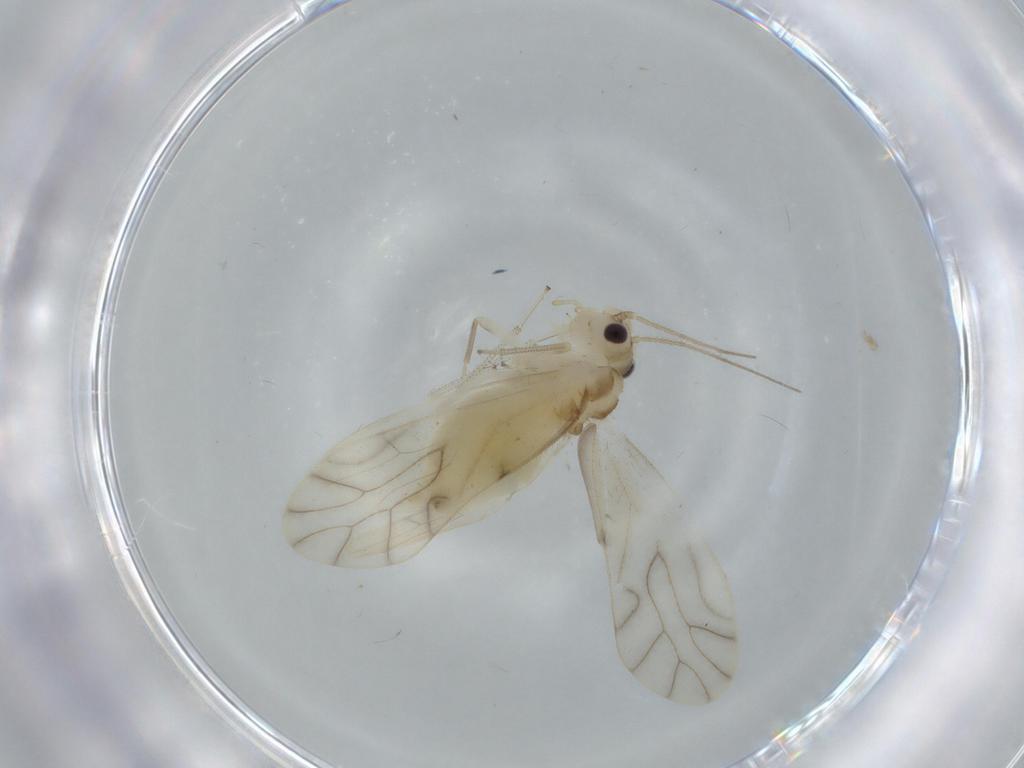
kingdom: Animalia
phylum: Arthropoda
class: Insecta
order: Psocodea
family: Caeciliusidae
